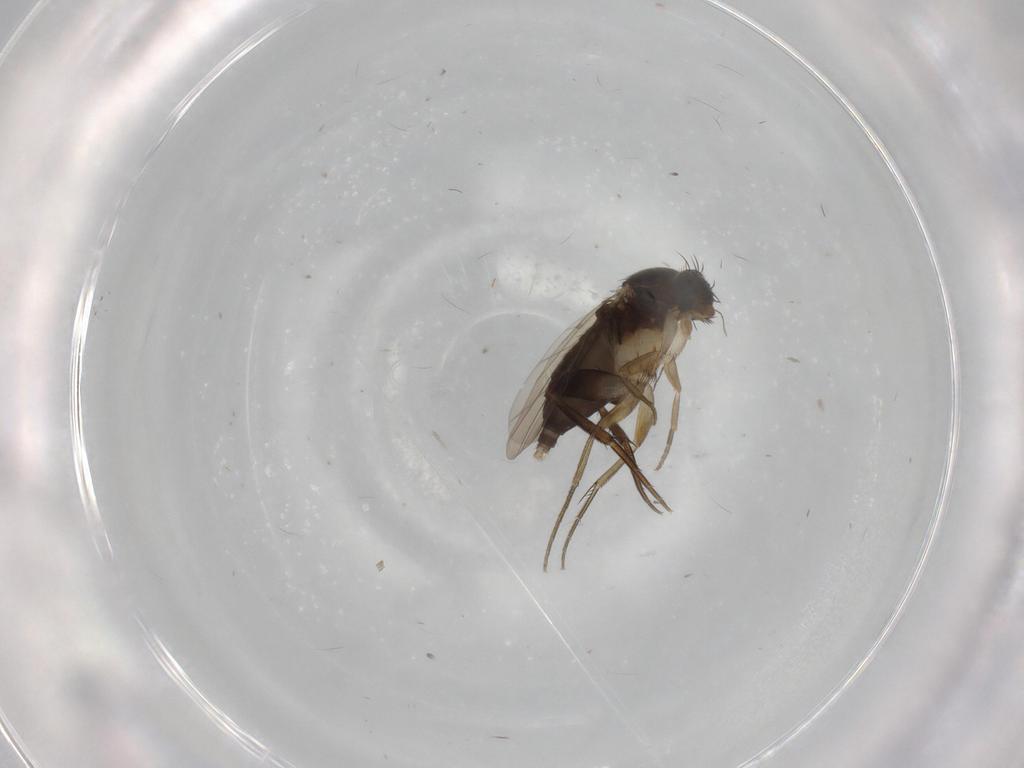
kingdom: Animalia
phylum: Arthropoda
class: Insecta
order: Diptera
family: Phoridae
